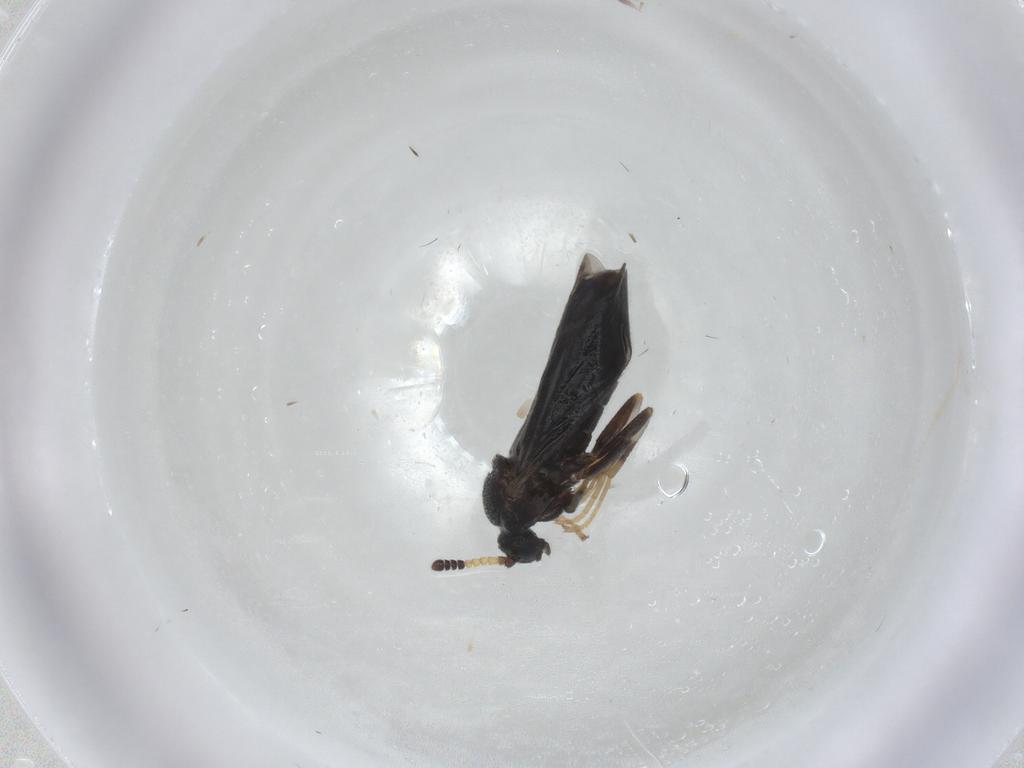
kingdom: Animalia
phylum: Arthropoda
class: Insecta
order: Diptera
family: Scatopsidae
